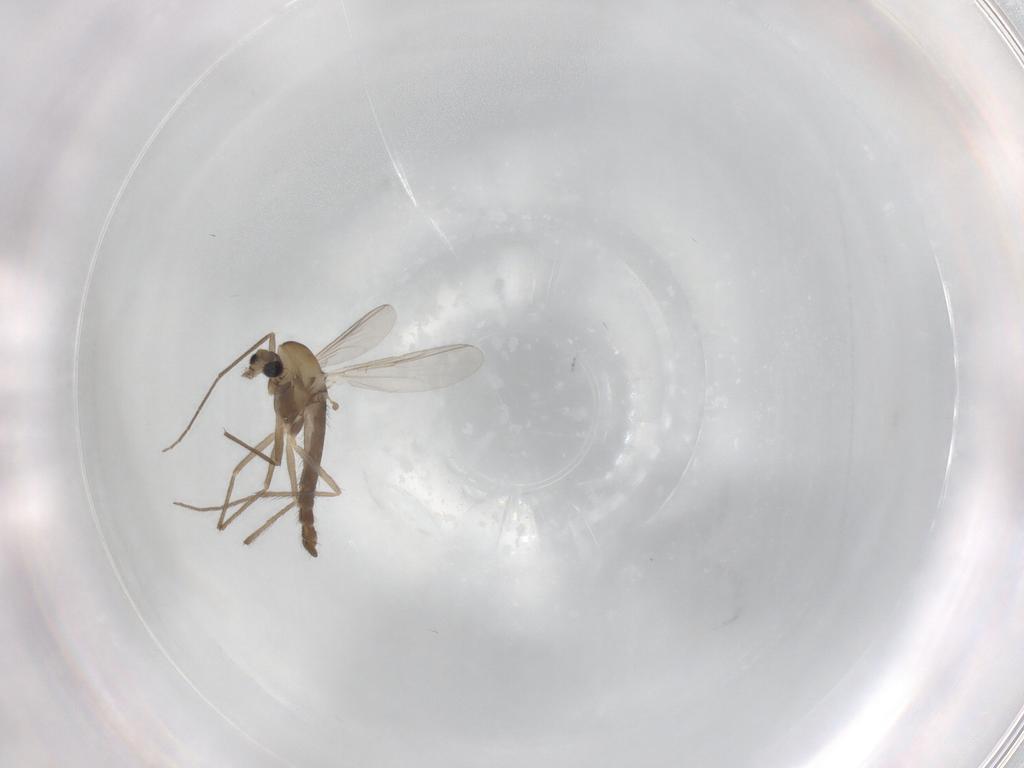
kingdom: Animalia
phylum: Arthropoda
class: Insecta
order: Diptera
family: Chironomidae
